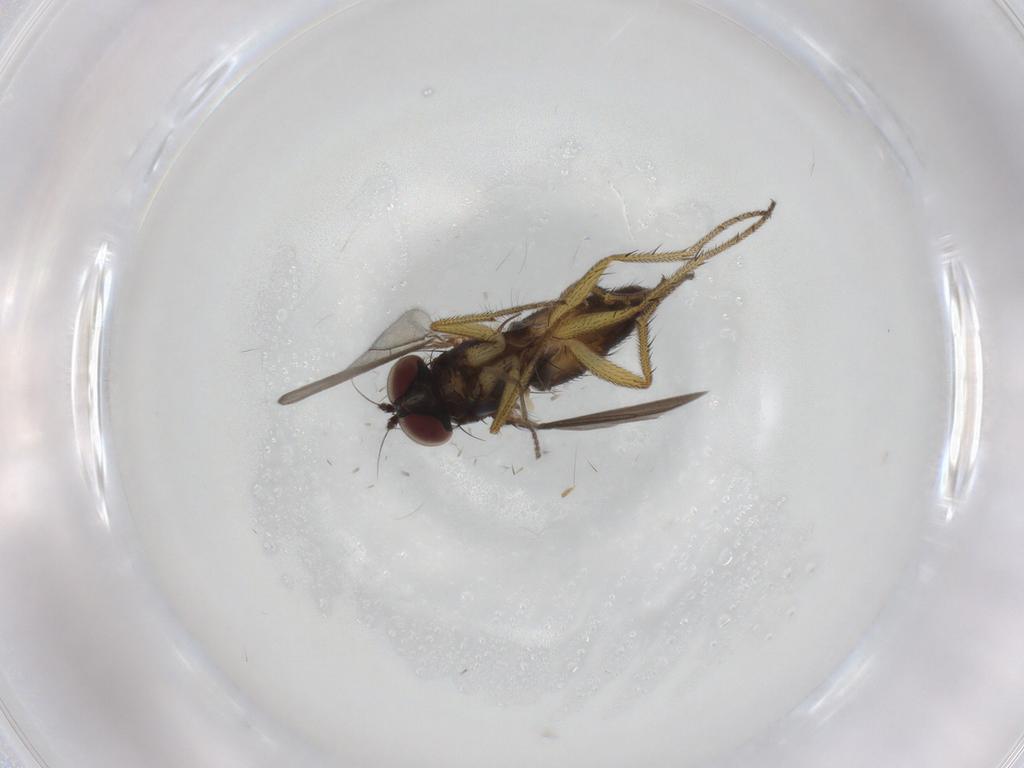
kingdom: Animalia
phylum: Arthropoda
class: Insecta
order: Diptera
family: Dolichopodidae
